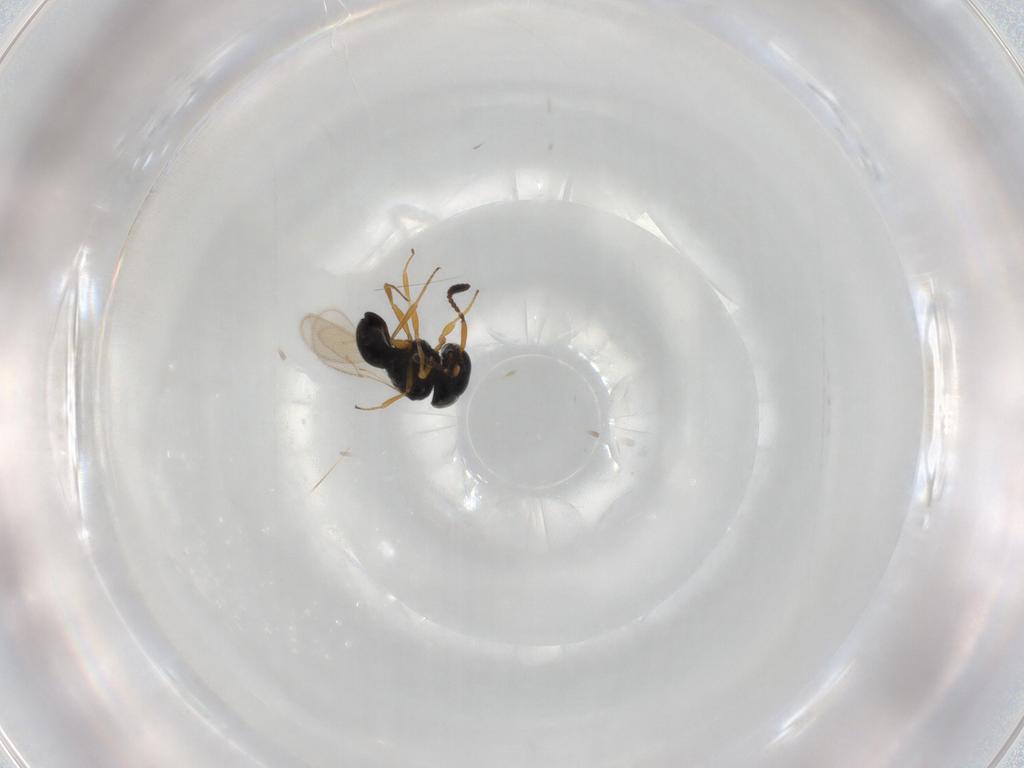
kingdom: Animalia
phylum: Arthropoda
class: Insecta
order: Hymenoptera
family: Scelionidae
